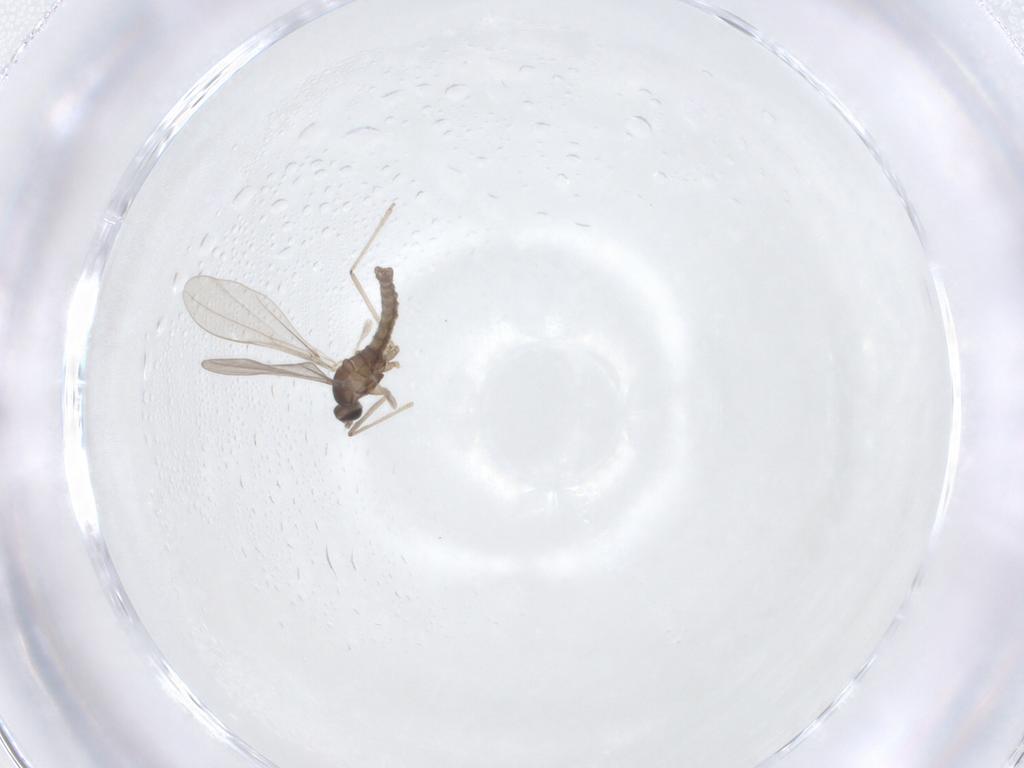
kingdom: Animalia
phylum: Arthropoda
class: Insecta
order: Diptera
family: Cecidomyiidae
